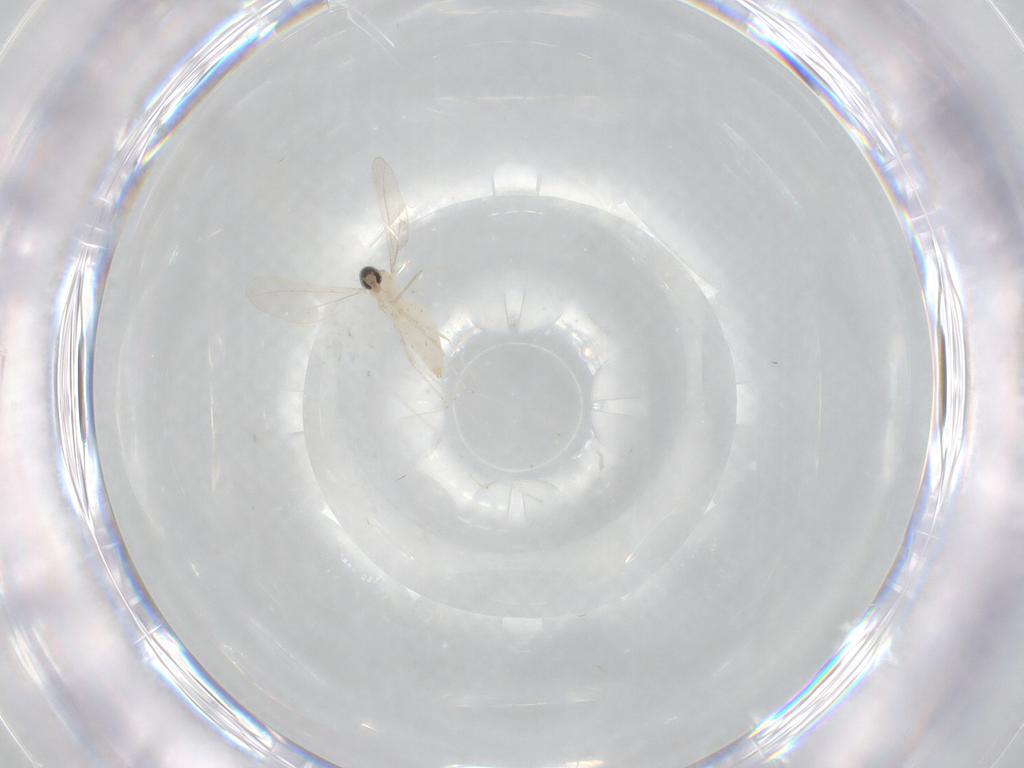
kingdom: Animalia
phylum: Arthropoda
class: Insecta
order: Diptera
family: Cecidomyiidae
